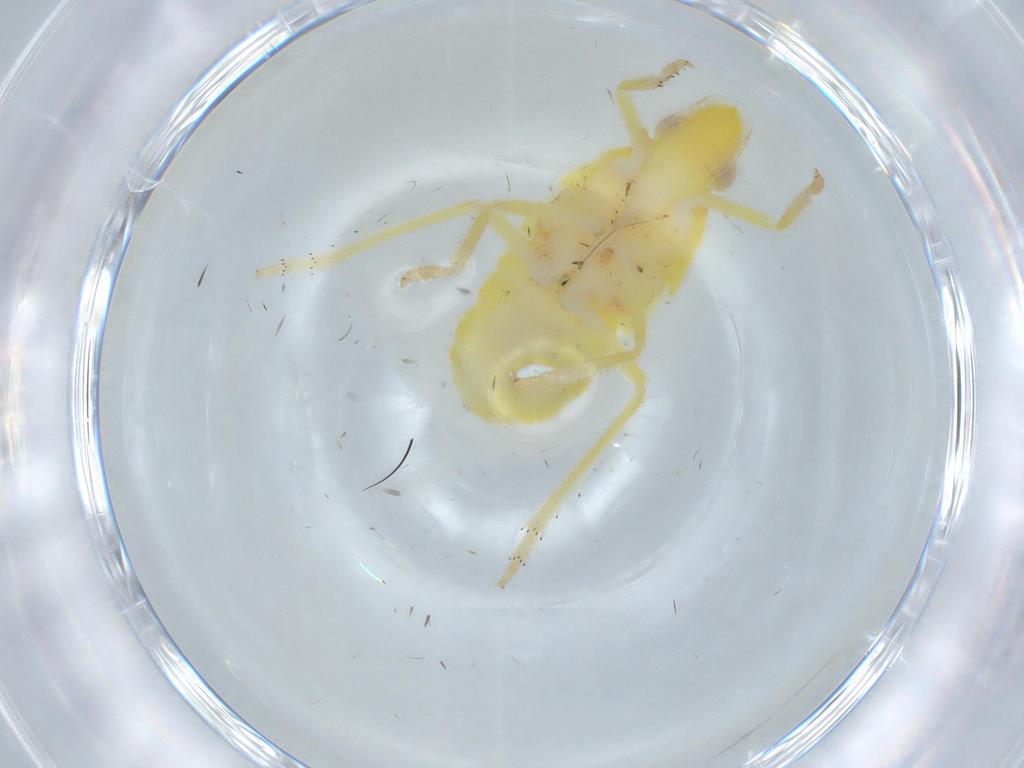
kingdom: Animalia
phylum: Arthropoda
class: Insecta
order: Hemiptera
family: Tropiduchidae
